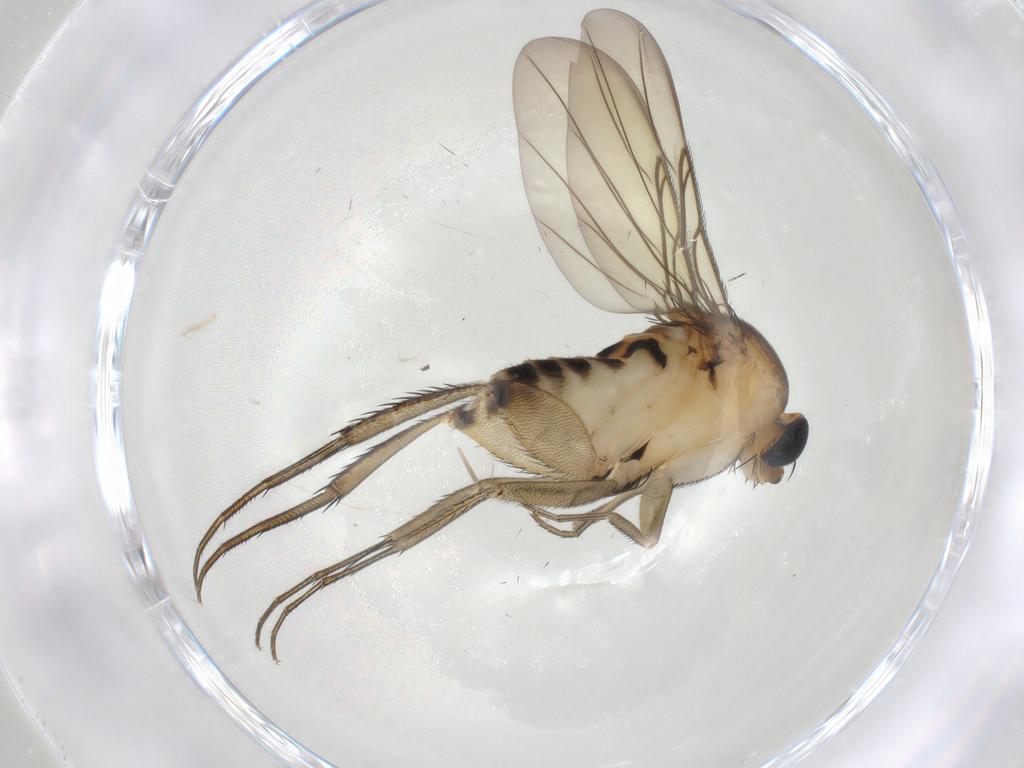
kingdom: Animalia
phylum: Arthropoda
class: Insecta
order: Diptera
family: Phoridae
